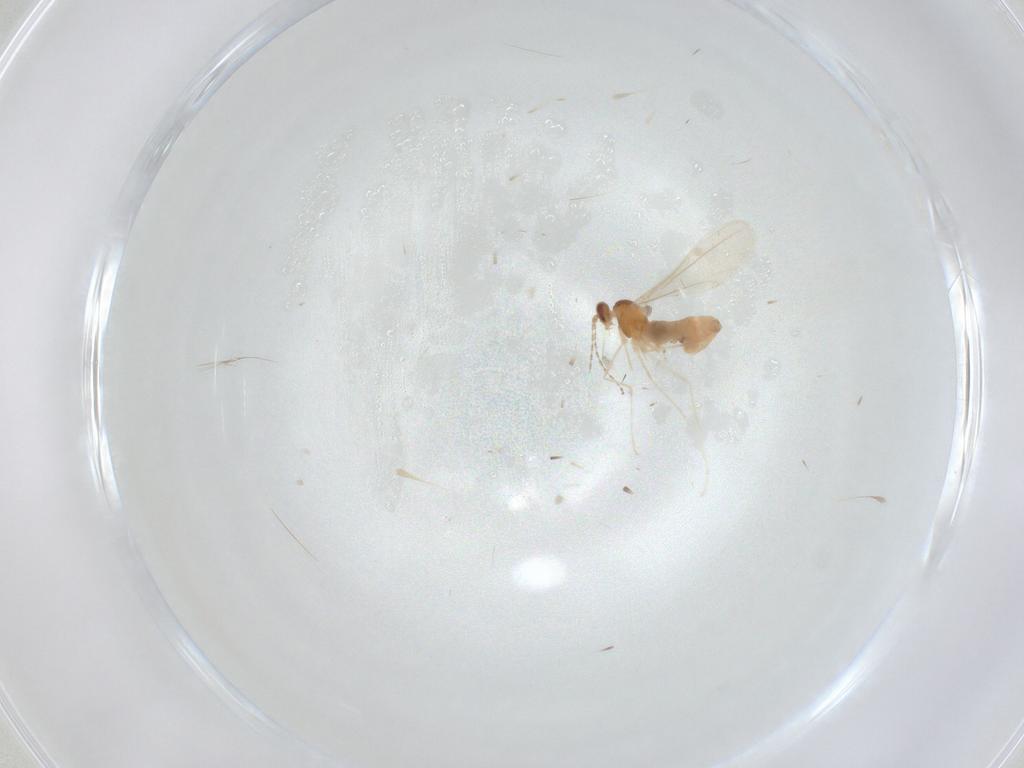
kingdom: Animalia
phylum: Arthropoda
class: Insecta
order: Diptera
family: Cecidomyiidae
